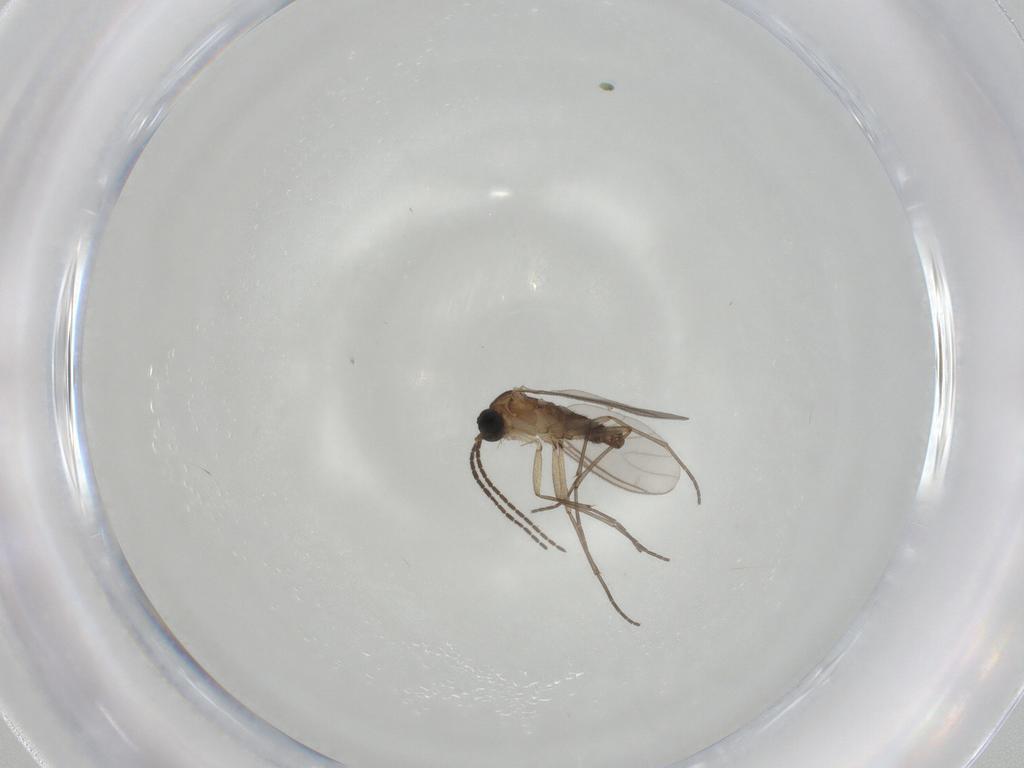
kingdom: Animalia
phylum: Arthropoda
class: Insecta
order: Diptera
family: Sciaridae
